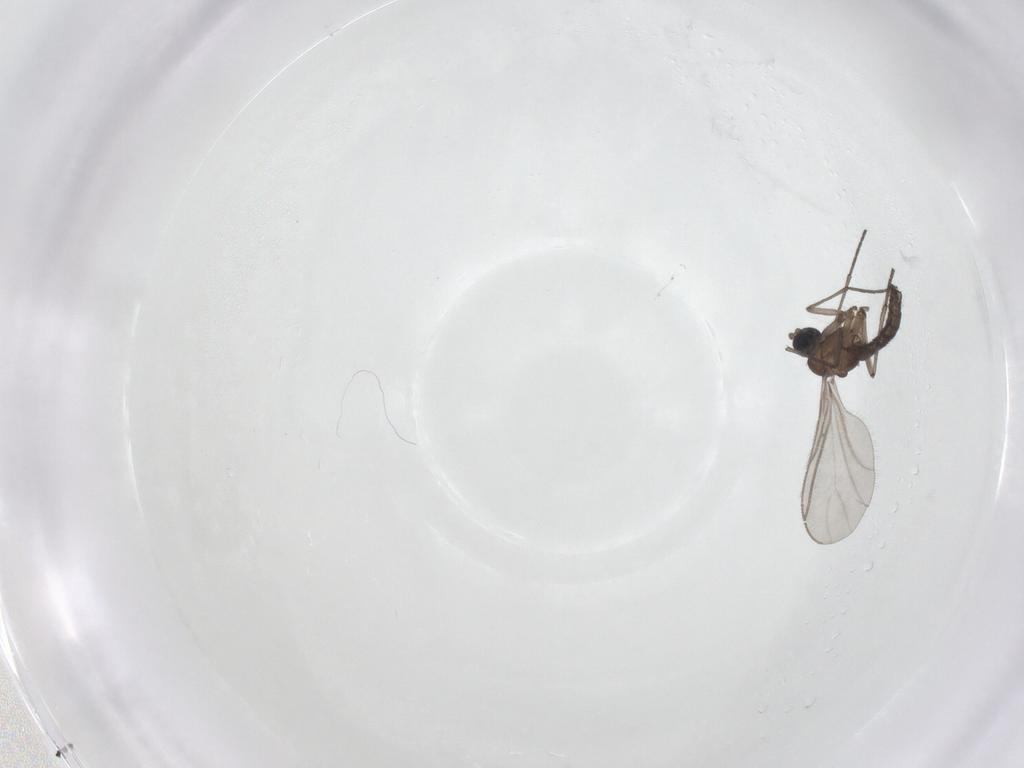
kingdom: Animalia
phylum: Arthropoda
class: Insecta
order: Diptera
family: Sciaridae
